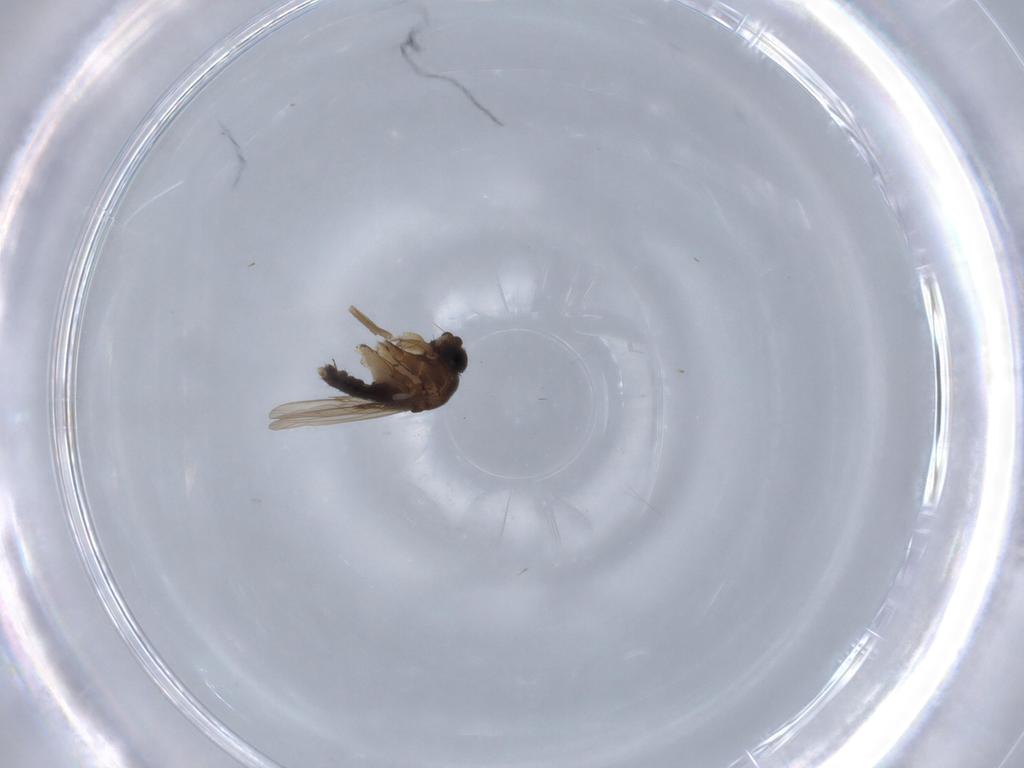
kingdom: Animalia
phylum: Arthropoda
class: Insecta
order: Diptera
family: Phoridae
